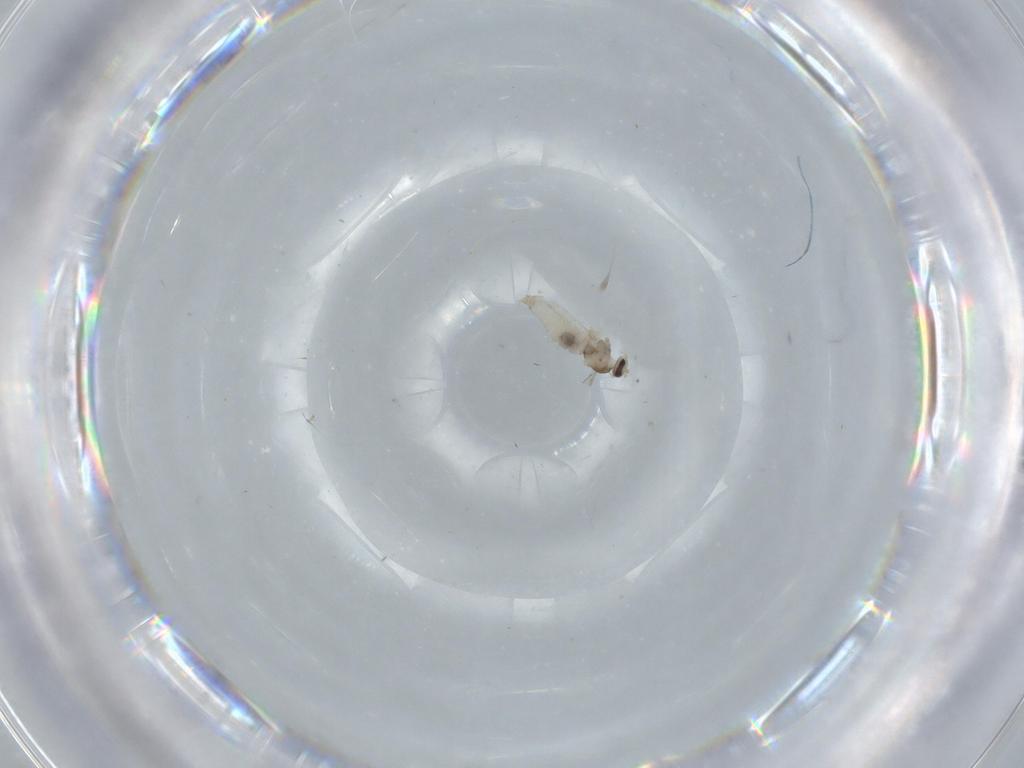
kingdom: Animalia
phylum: Arthropoda
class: Insecta
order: Diptera
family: Cecidomyiidae
